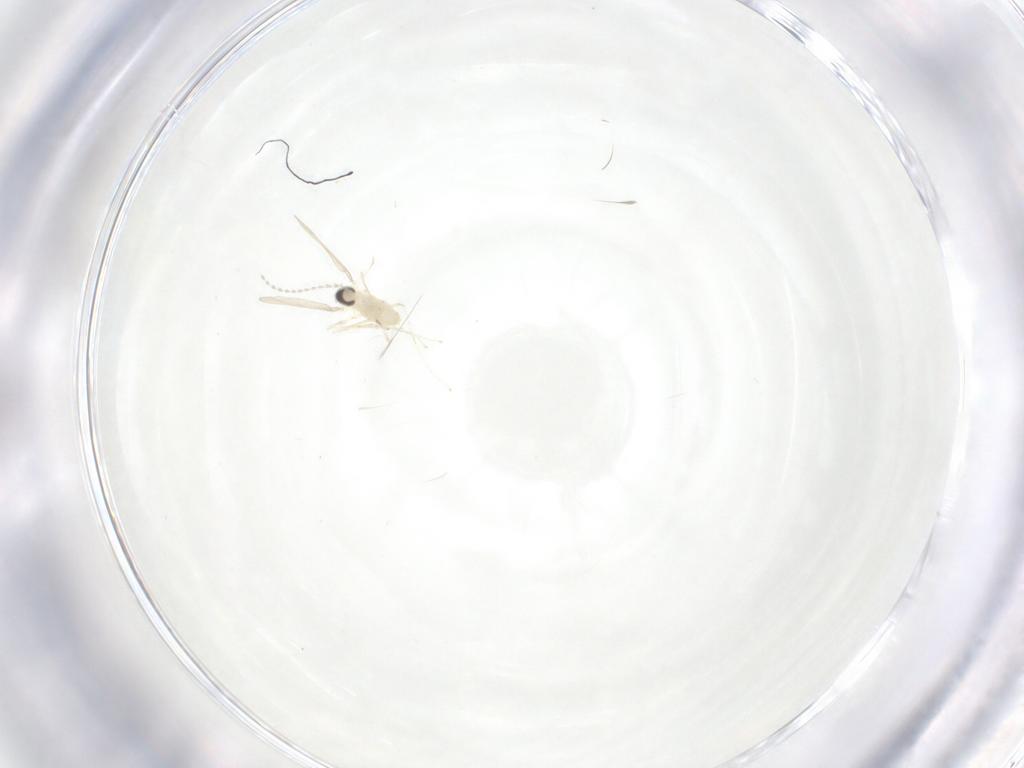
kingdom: Animalia
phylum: Arthropoda
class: Insecta
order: Diptera
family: Cecidomyiidae
